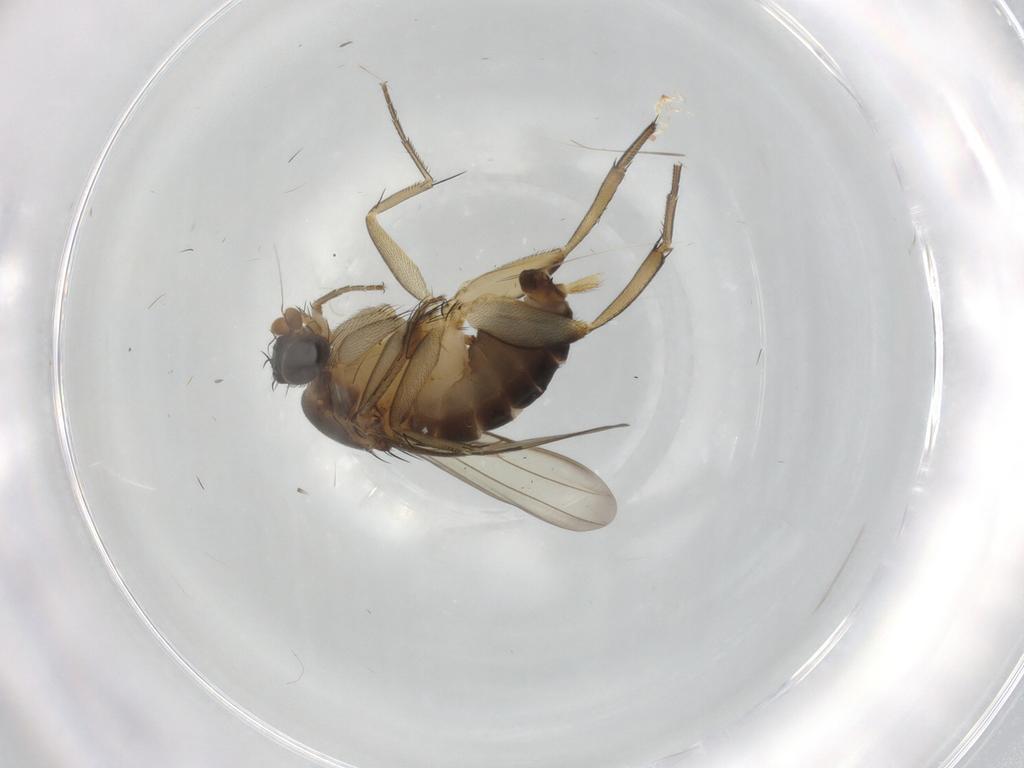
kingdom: Animalia
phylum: Arthropoda
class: Insecta
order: Diptera
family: Phoridae
